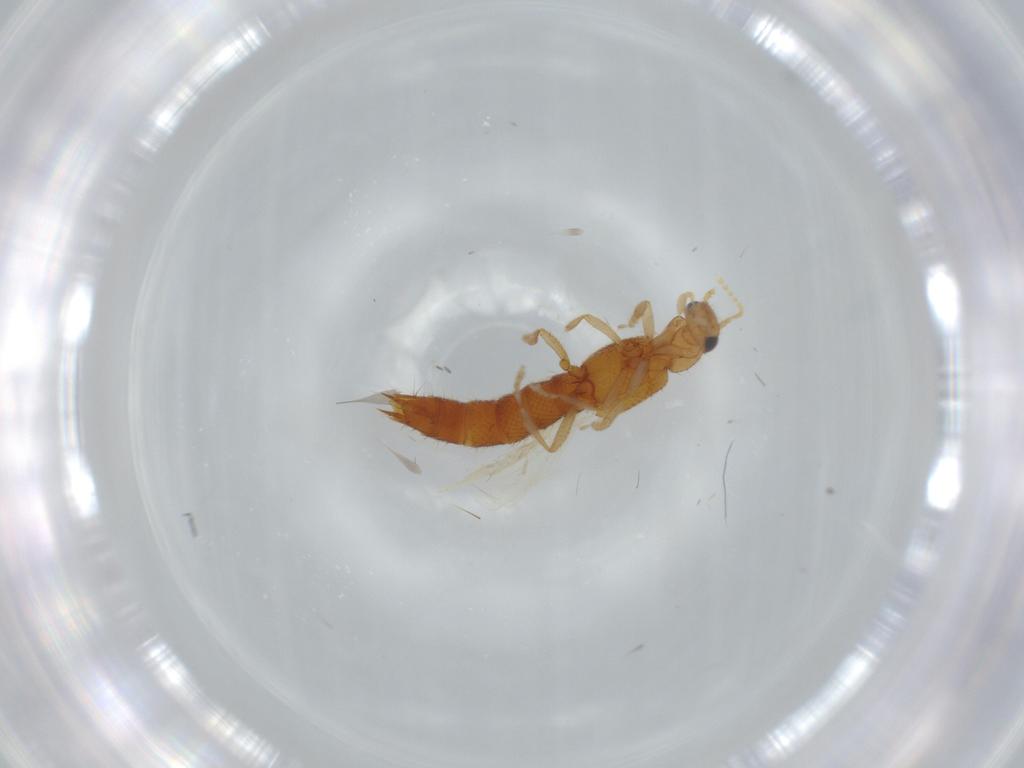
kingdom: Animalia
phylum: Arthropoda
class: Insecta
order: Coleoptera
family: Staphylinidae
